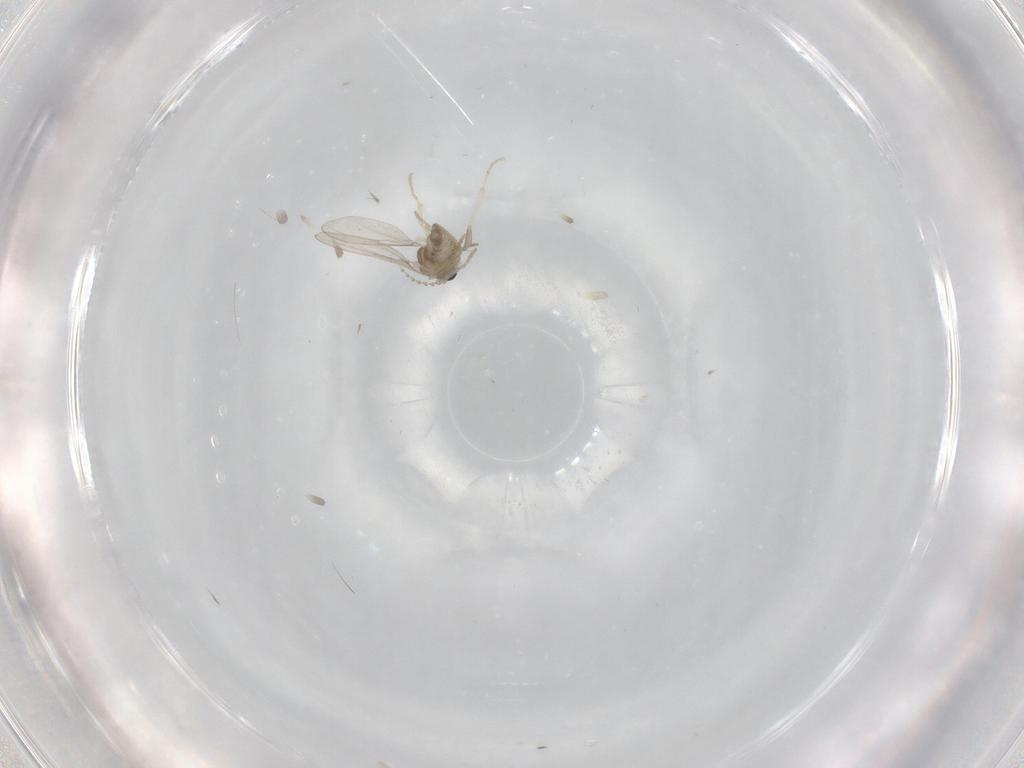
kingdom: Animalia
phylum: Arthropoda
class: Insecta
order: Diptera
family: Cecidomyiidae
